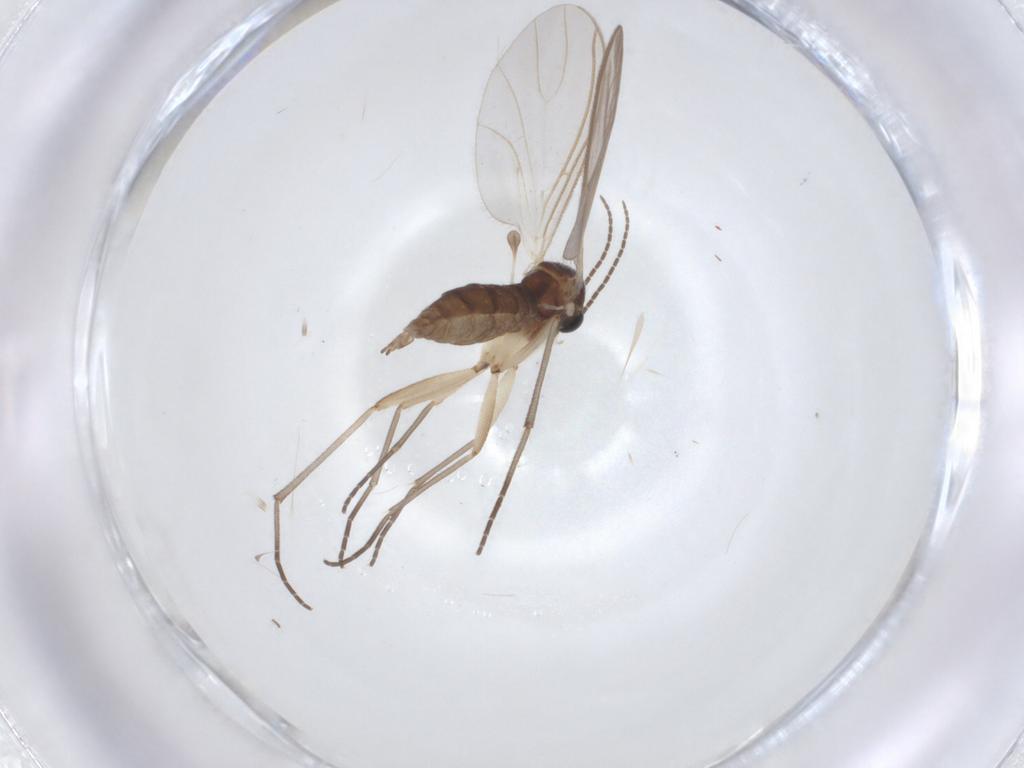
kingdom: Animalia
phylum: Arthropoda
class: Insecta
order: Diptera
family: Sciaridae
